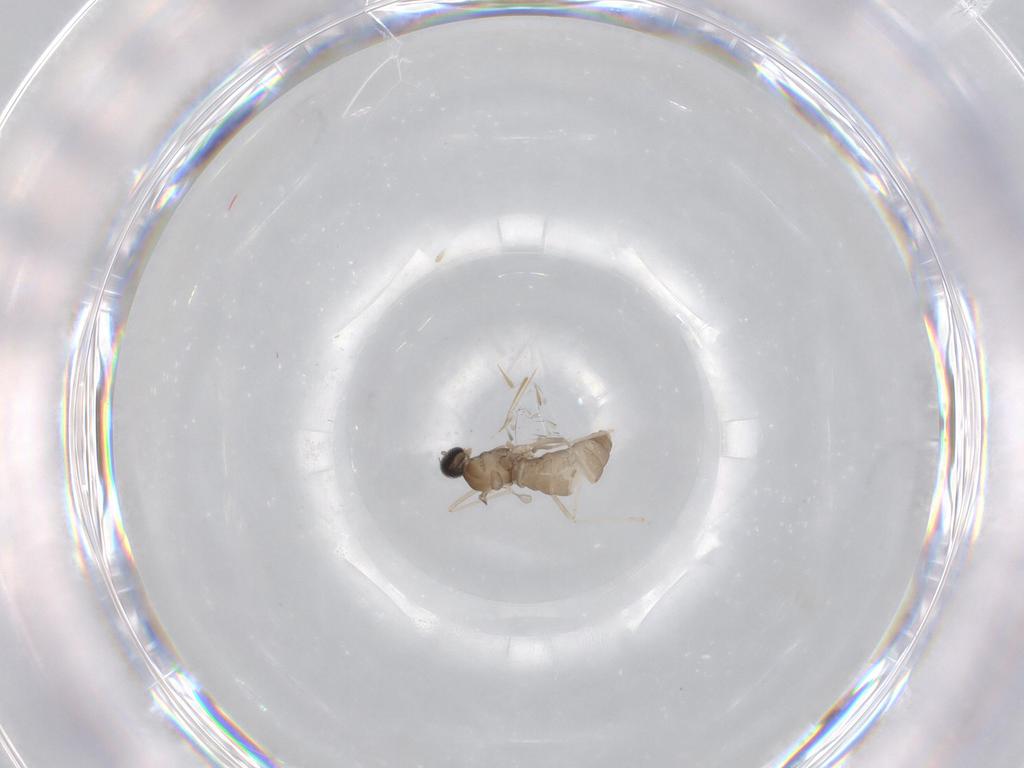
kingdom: Animalia
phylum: Arthropoda
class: Insecta
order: Diptera
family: Cecidomyiidae
